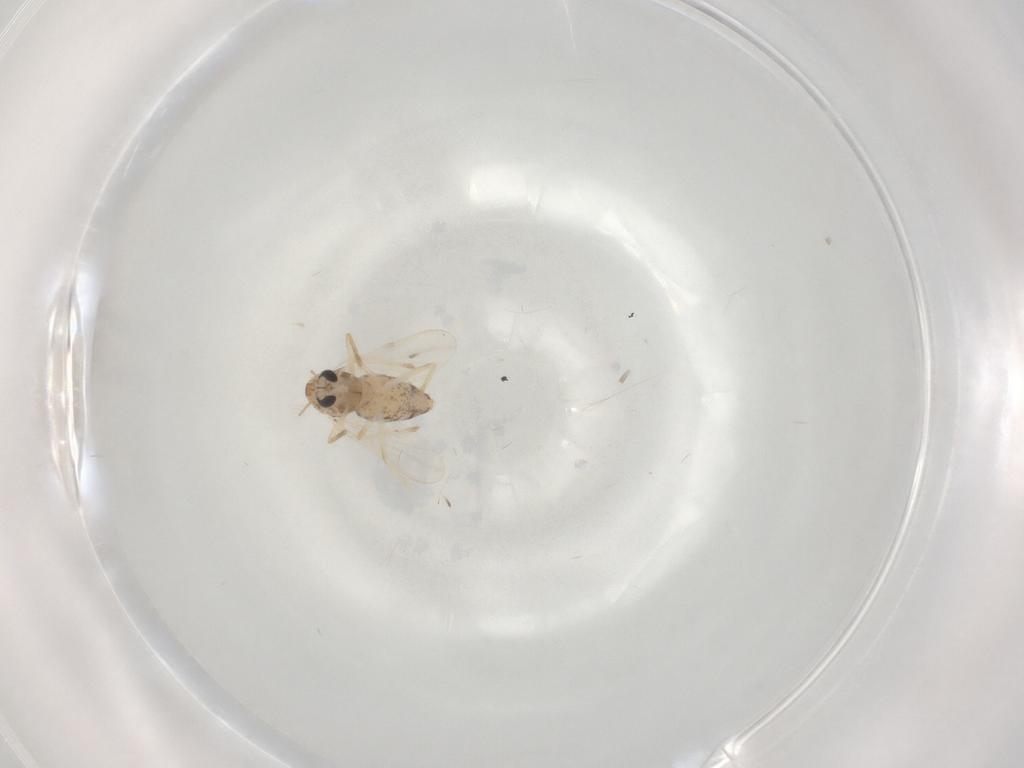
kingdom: Animalia
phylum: Arthropoda
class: Insecta
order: Diptera
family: Chironomidae
